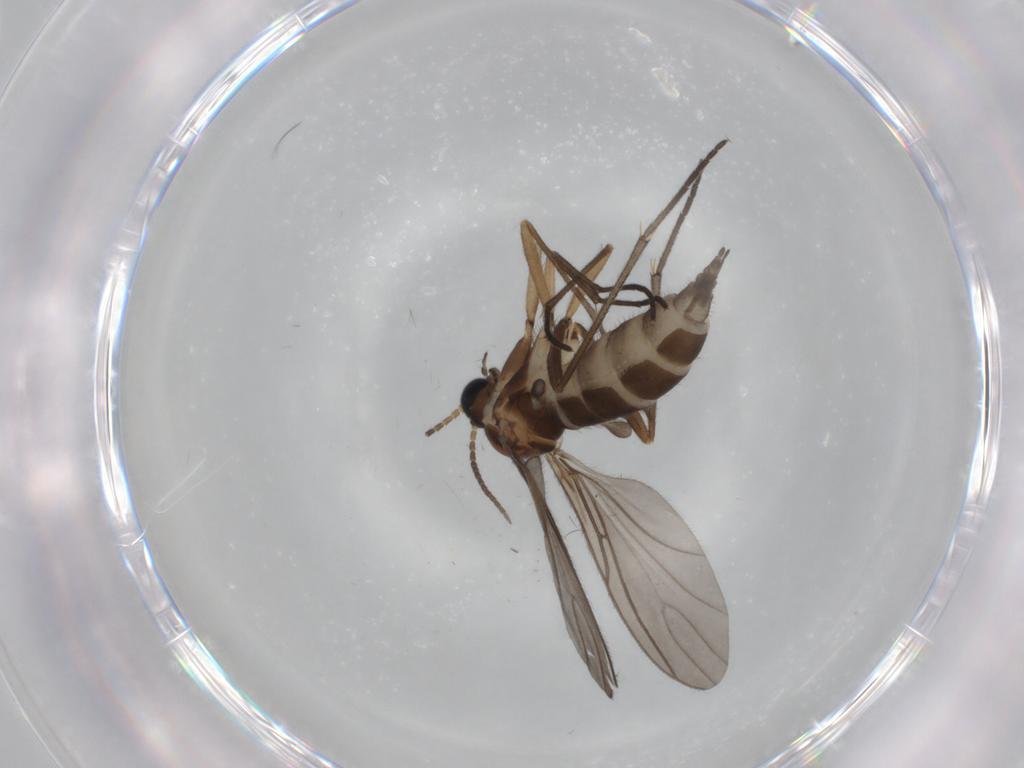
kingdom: Animalia
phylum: Arthropoda
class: Insecta
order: Diptera
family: Sciaridae
